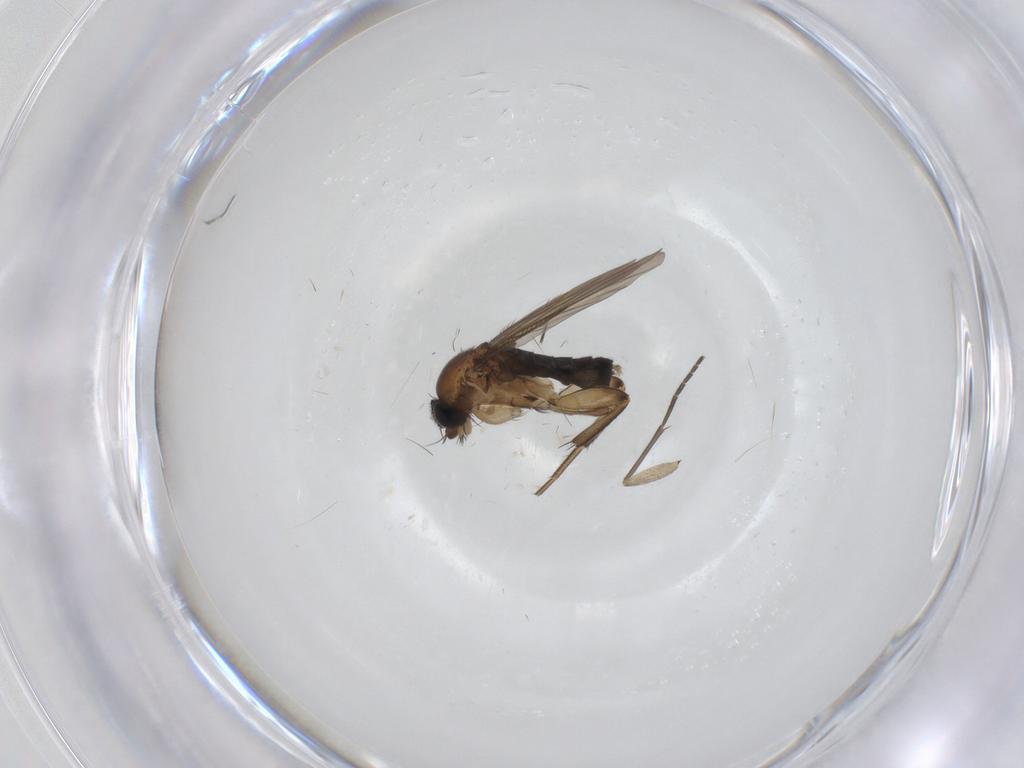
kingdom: Animalia
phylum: Arthropoda
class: Insecta
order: Diptera
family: Phoridae
